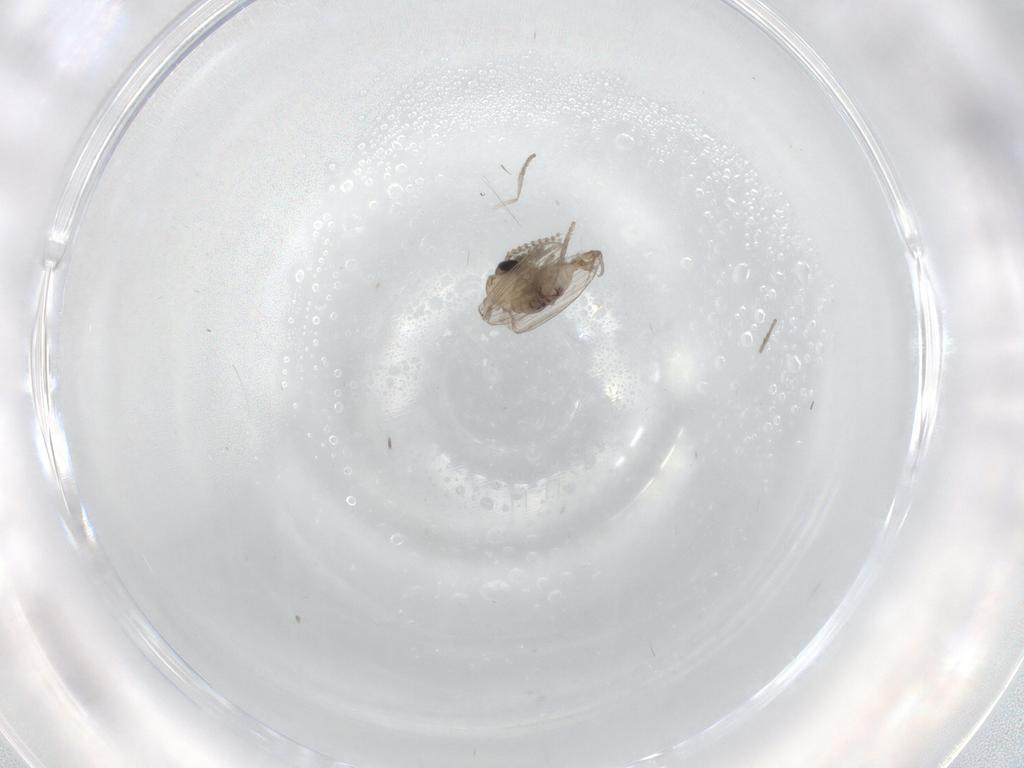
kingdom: Animalia
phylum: Arthropoda
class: Insecta
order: Diptera
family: Psychodidae
